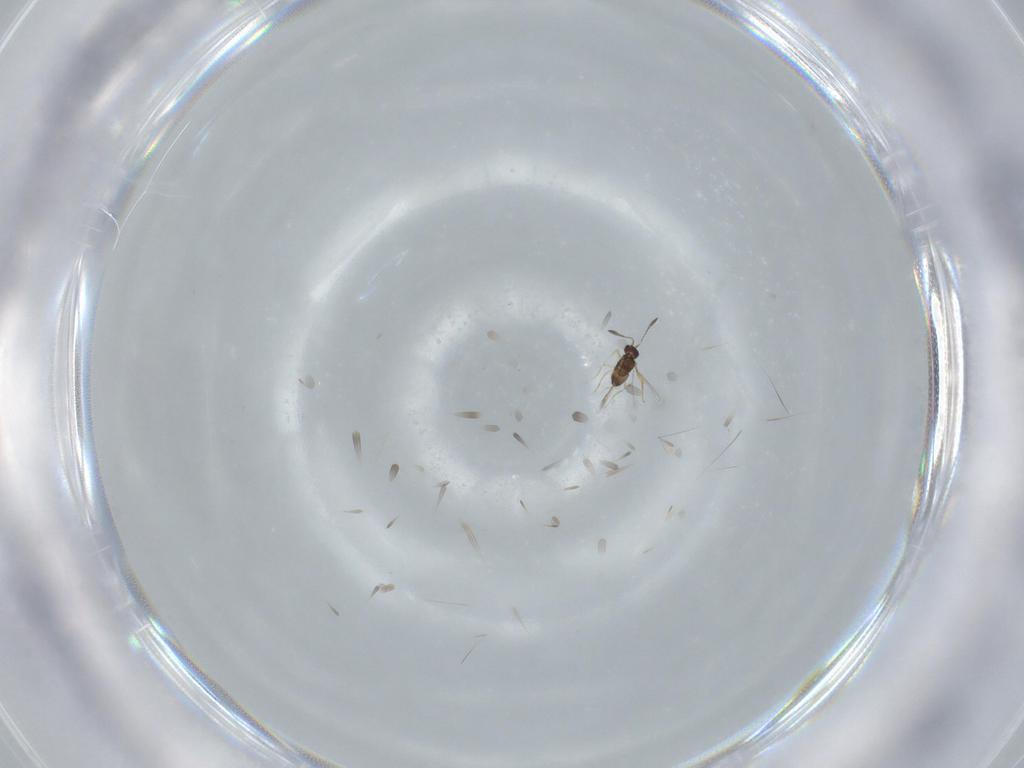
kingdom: Animalia
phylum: Arthropoda
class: Insecta
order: Hymenoptera
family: Scelionidae
